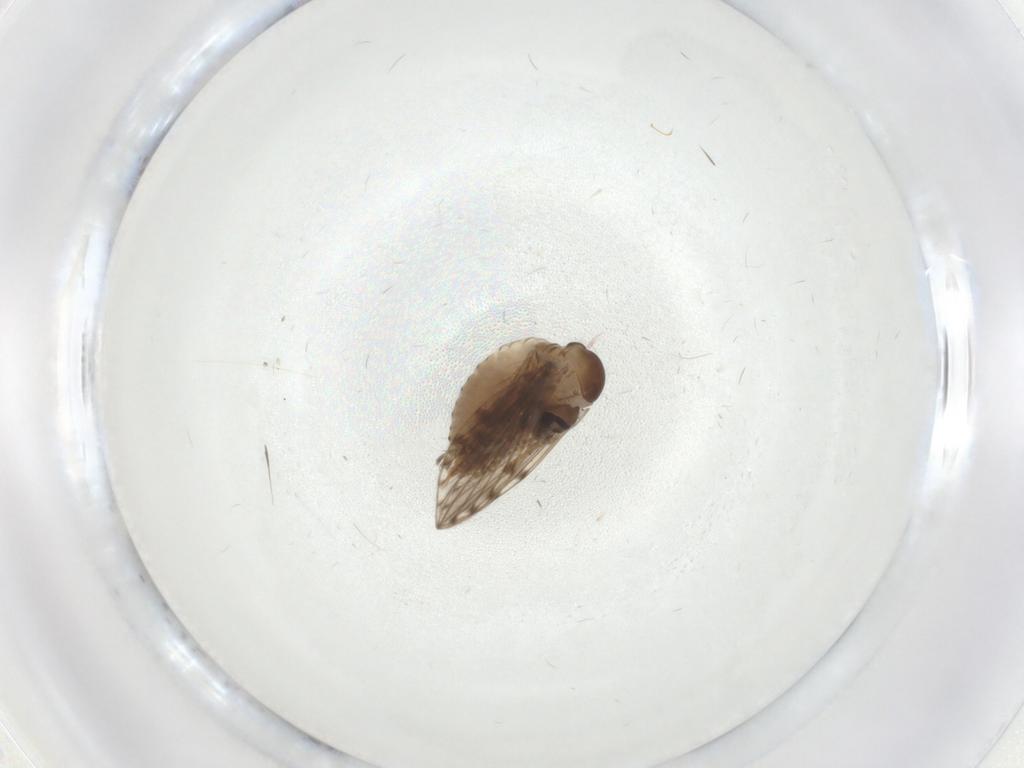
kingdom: Animalia
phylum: Arthropoda
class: Insecta
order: Diptera
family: Psychodidae
